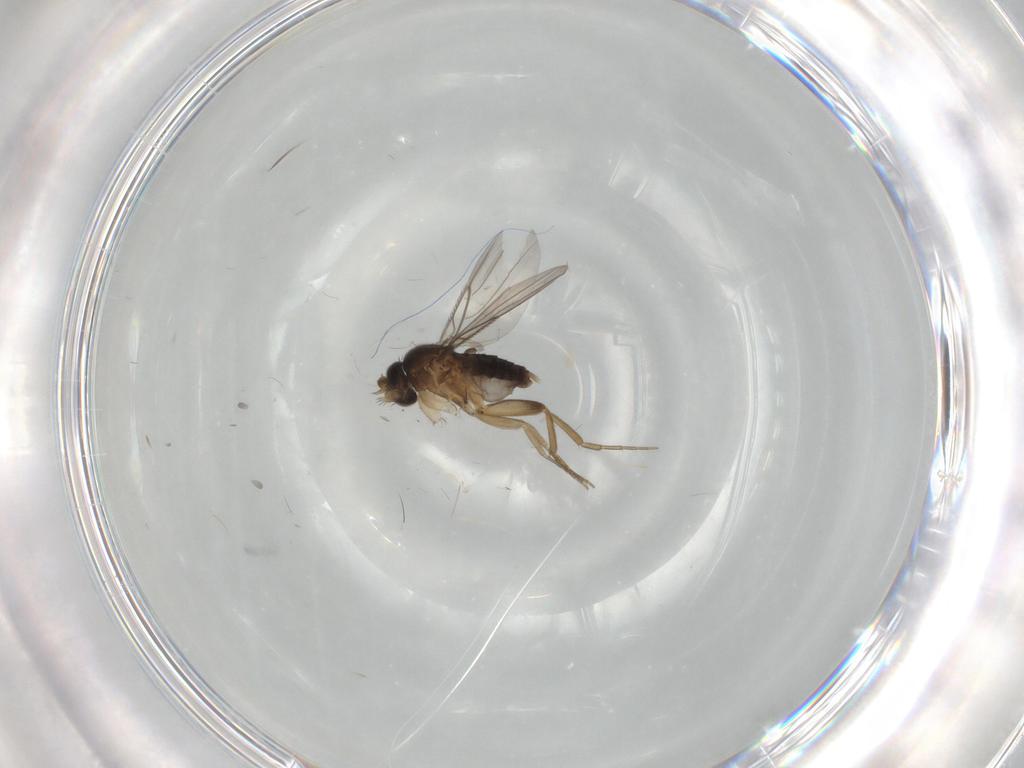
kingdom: Animalia
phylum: Arthropoda
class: Insecta
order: Diptera
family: Phoridae
